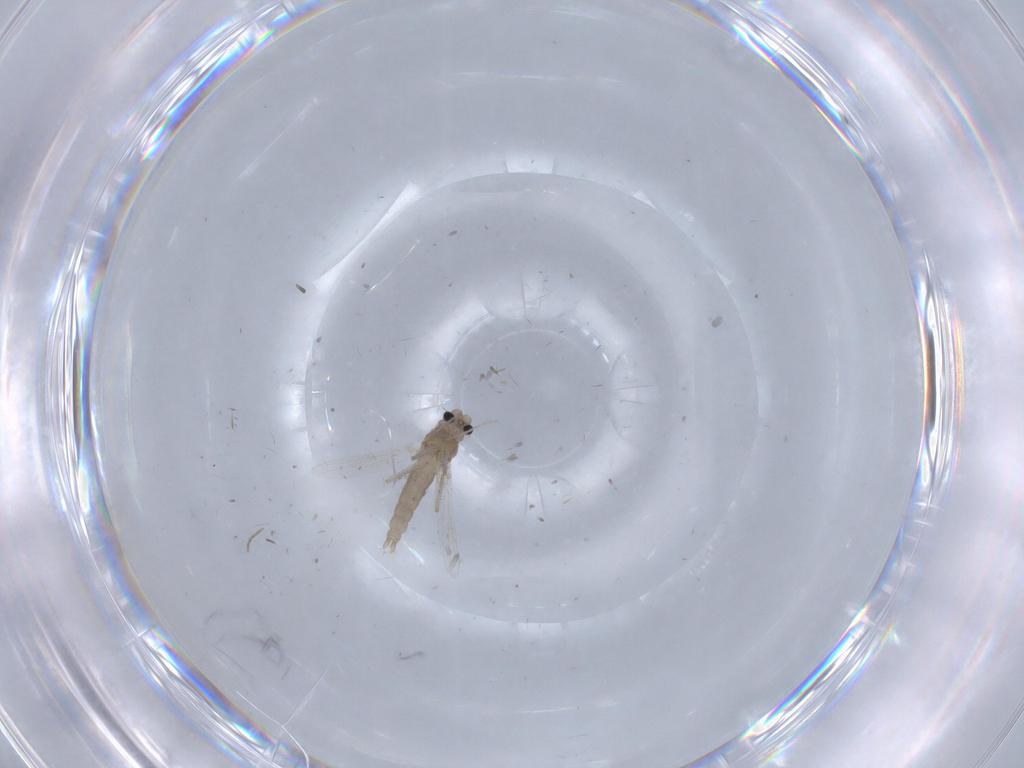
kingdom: Animalia
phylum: Arthropoda
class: Insecta
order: Diptera
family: Chironomidae
